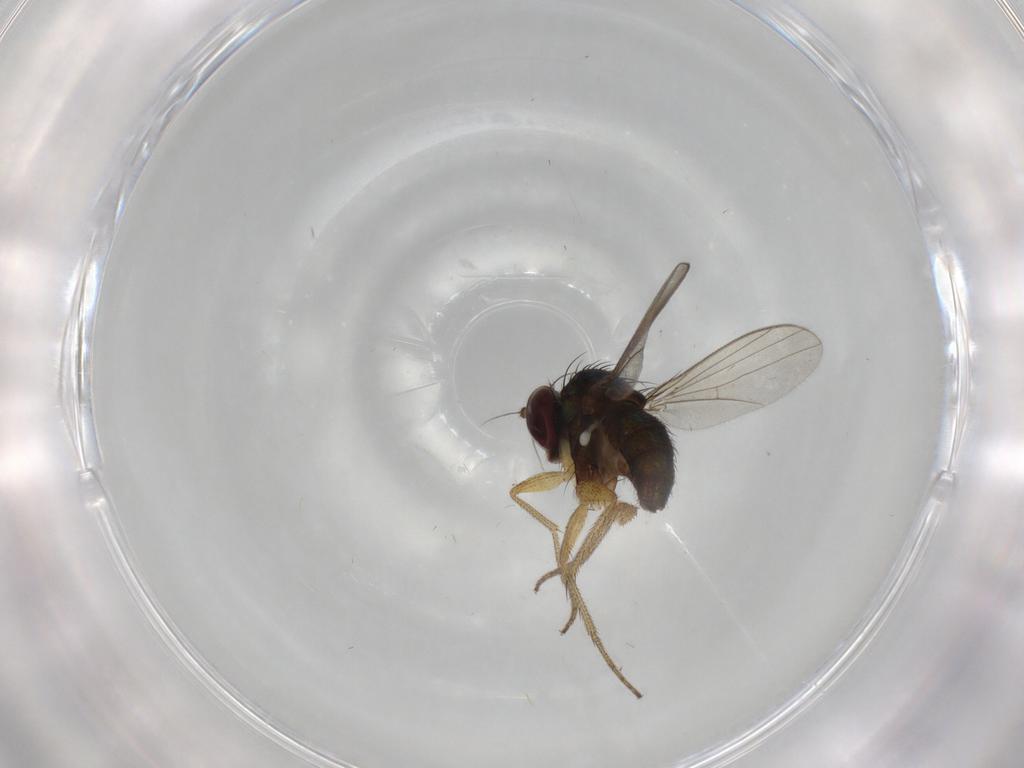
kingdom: Animalia
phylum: Arthropoda
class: Insecta
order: Diptera
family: Dolichopodidae
